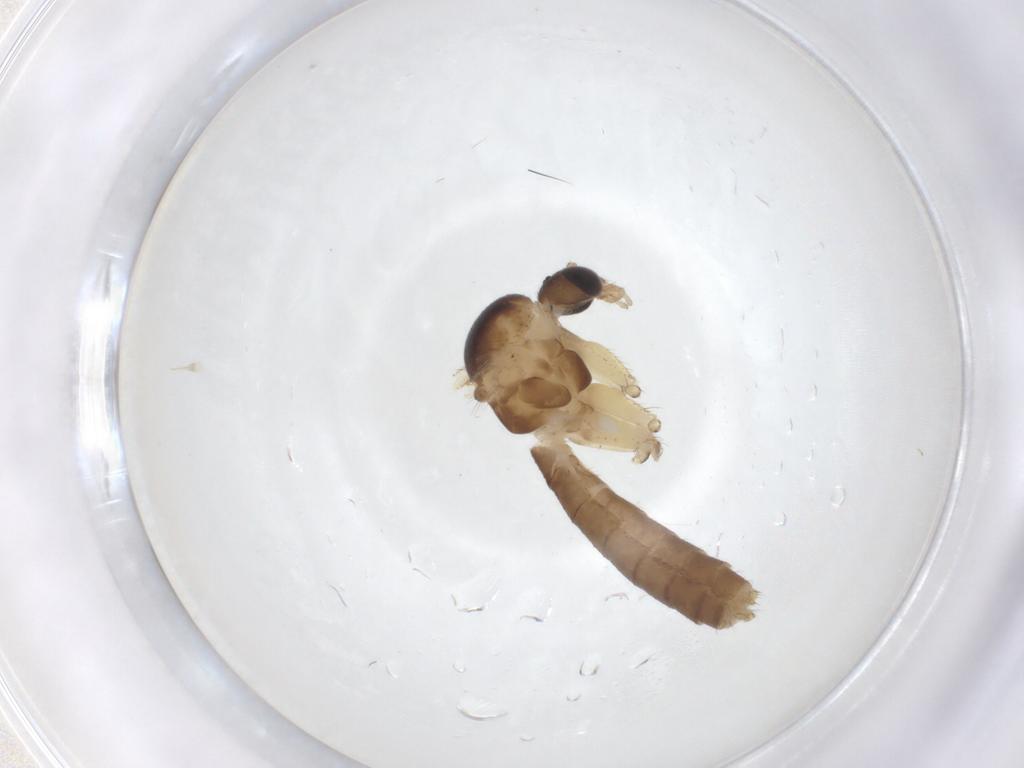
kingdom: Animalia
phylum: Arthropoda
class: Insecta
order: Diptera
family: Mycetophilidae
